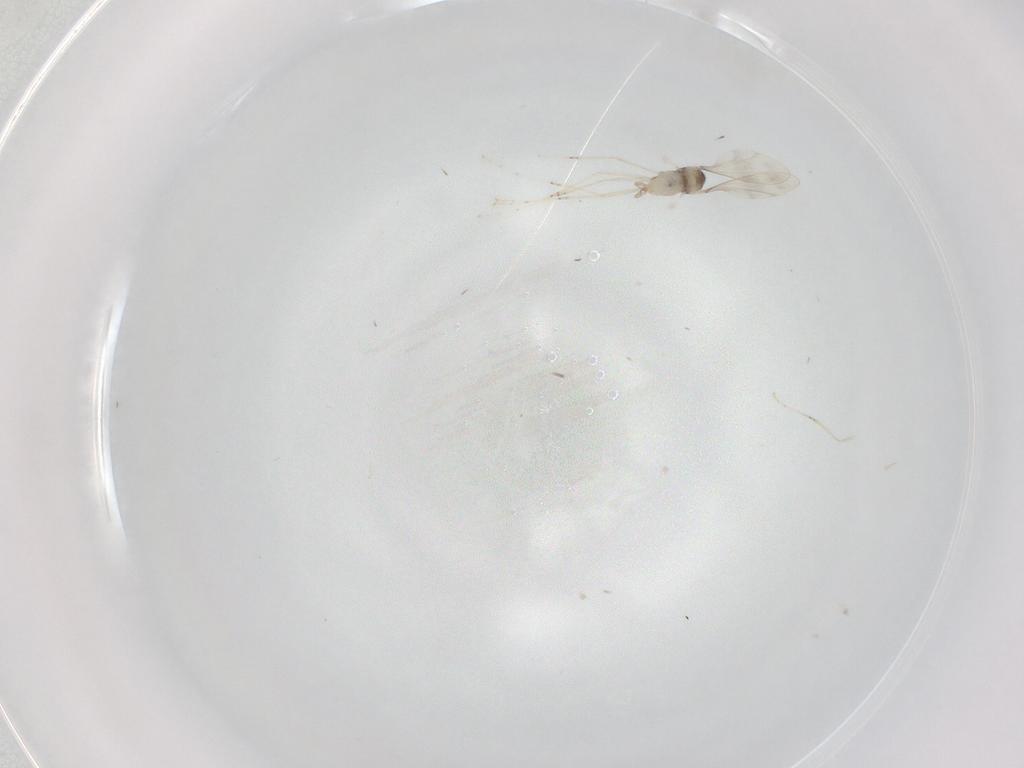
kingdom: Animalia
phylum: Arthropoda
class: Insecta
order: Diptera
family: Cecidomyiidae
